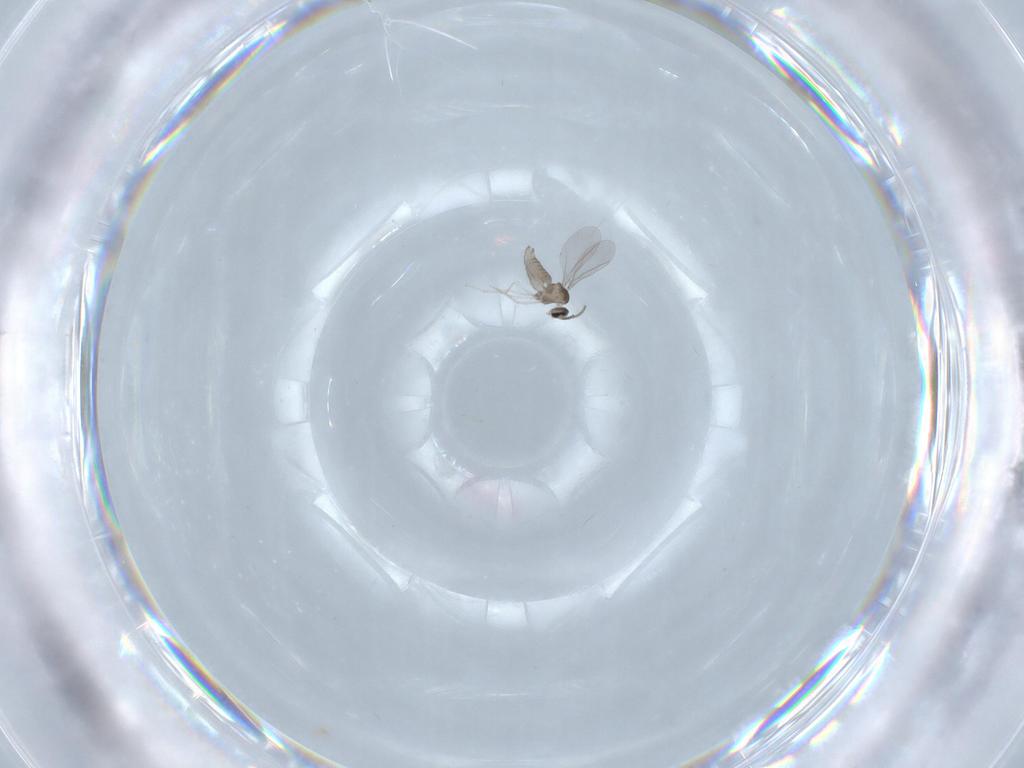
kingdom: Animalia
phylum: Arthropoda
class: Insecta
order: Diptera
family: Cecidomyiidae
